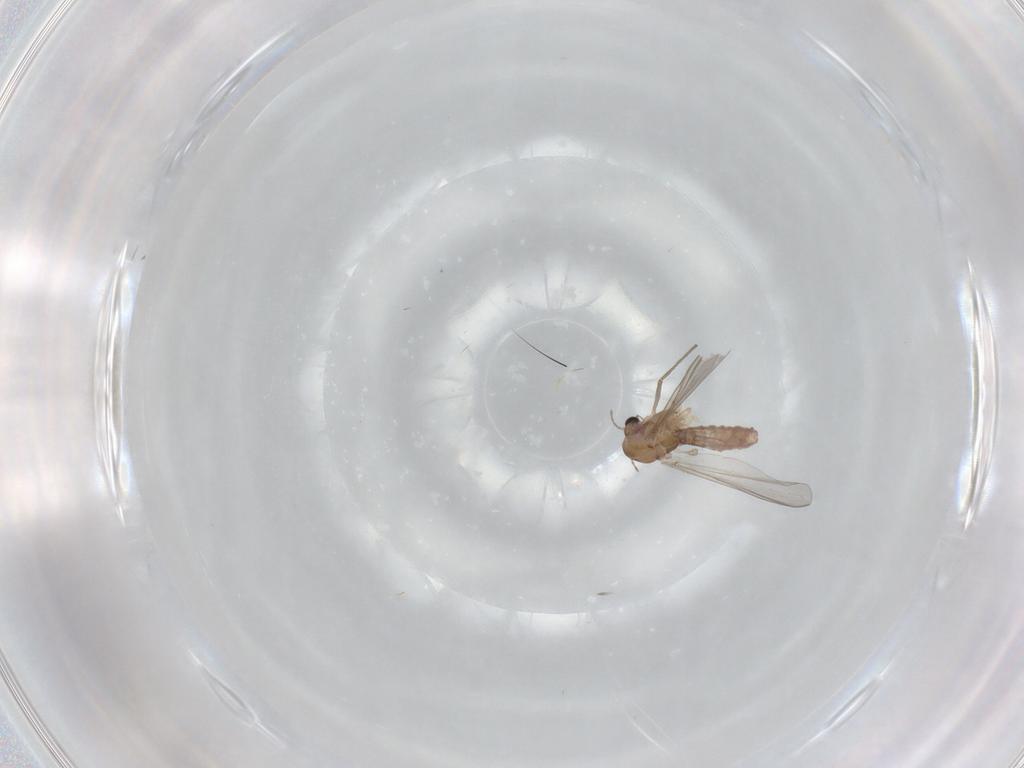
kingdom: Animalia
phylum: Arthropoda
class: Insecta
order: Diptera
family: Chironomidae
